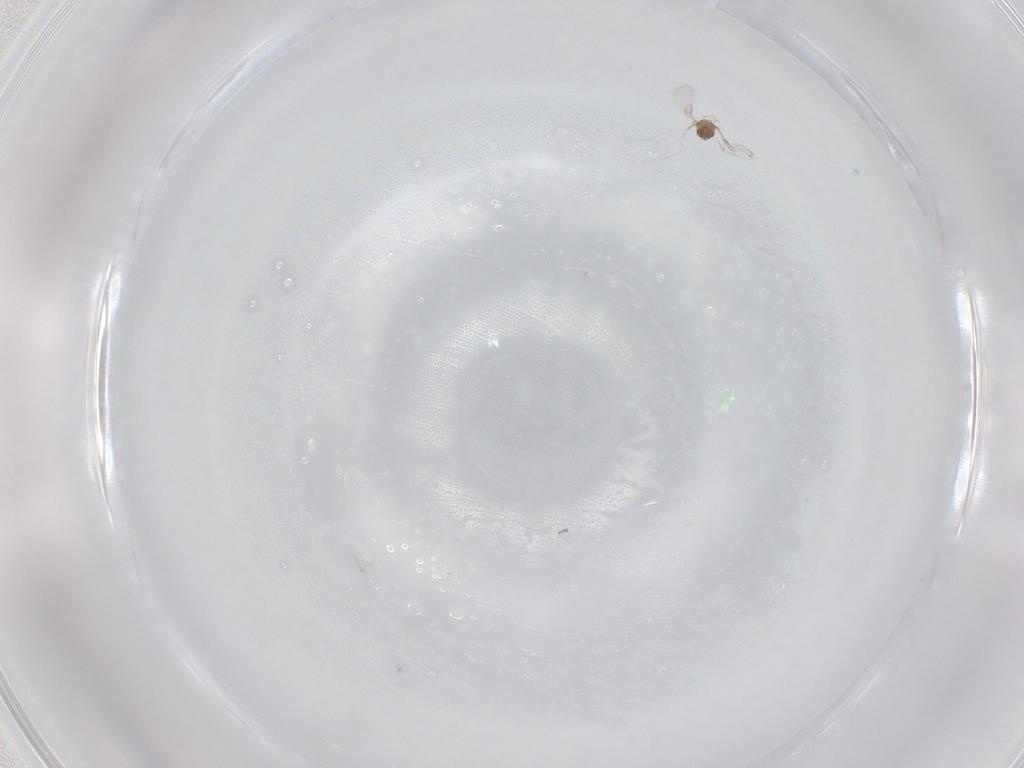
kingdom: Animalia
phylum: Arthropoda
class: Insecta
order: Hymenoptera
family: Trichogrammatidae
